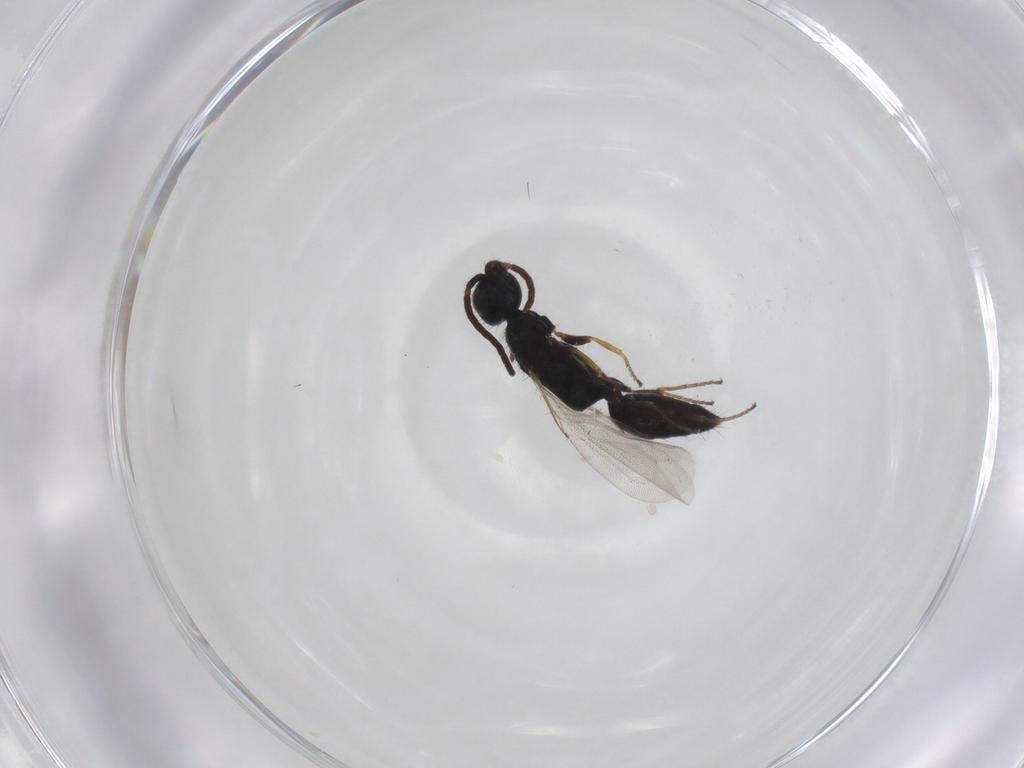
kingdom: Animalia
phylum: Arthropoda
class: Insecta
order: Hymenoptera
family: Bethylidae
